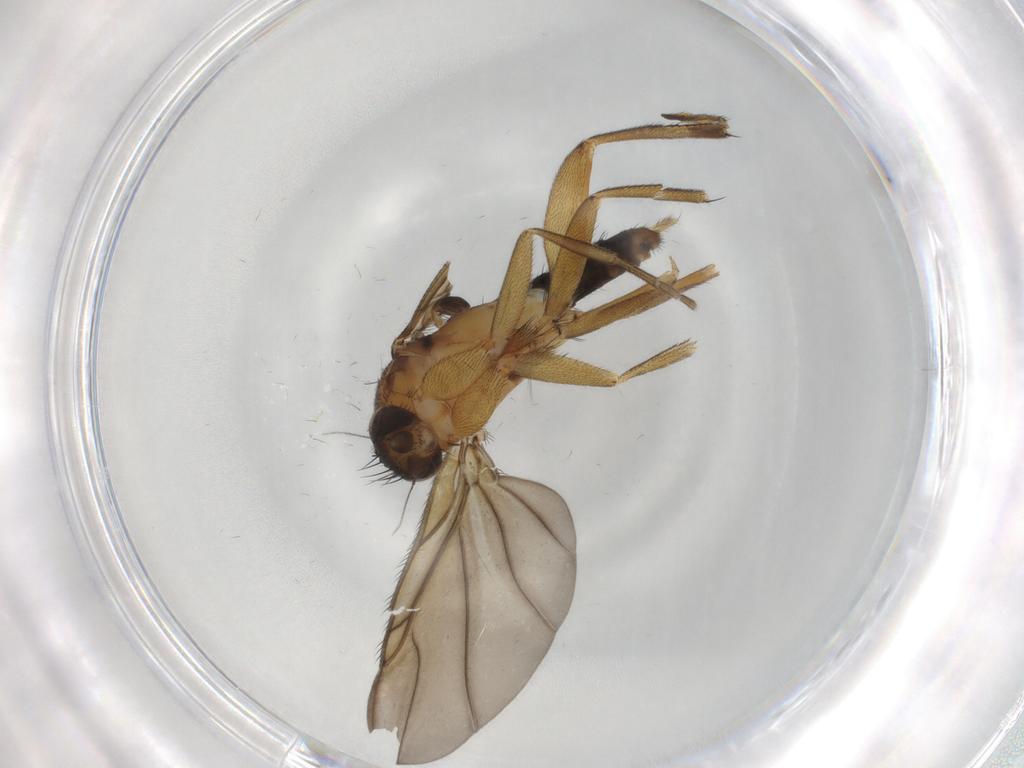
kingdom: Animalia
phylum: Arthropoda
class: Insecta
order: Diptera
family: Phoridae
